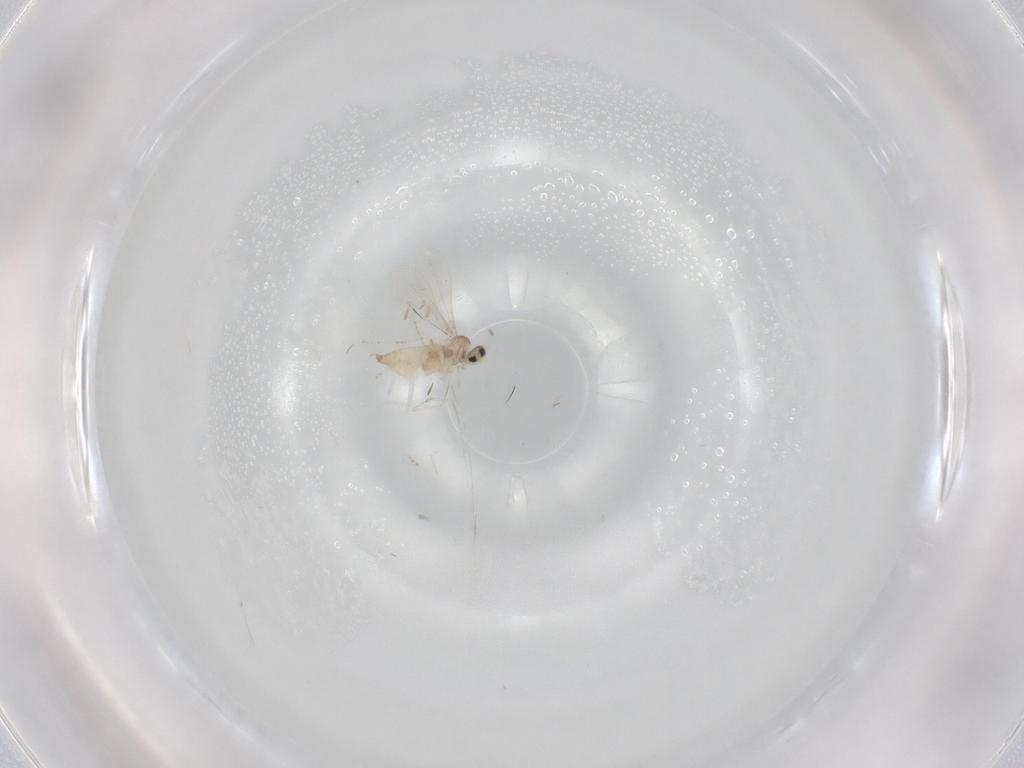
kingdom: Animalia
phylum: Arthropoda
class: Insecta
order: Diptera
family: Cecidomyiidae
